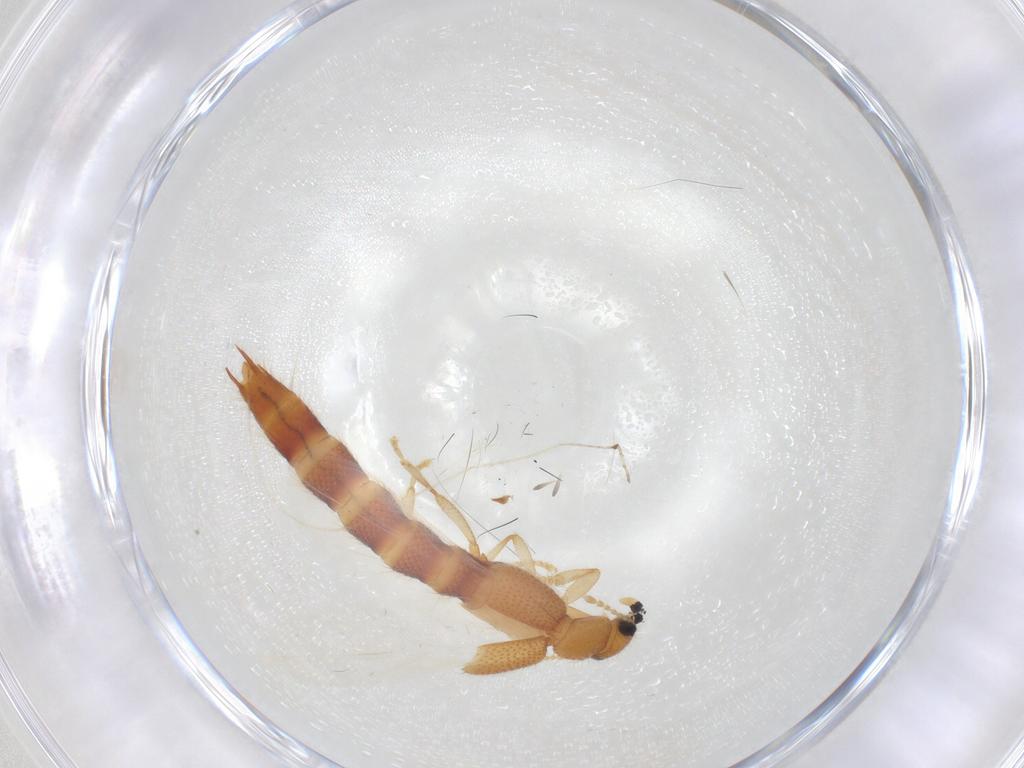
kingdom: Animalia
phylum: Arthropoda
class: Insecta
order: Coleoptera
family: Staphylinidae
